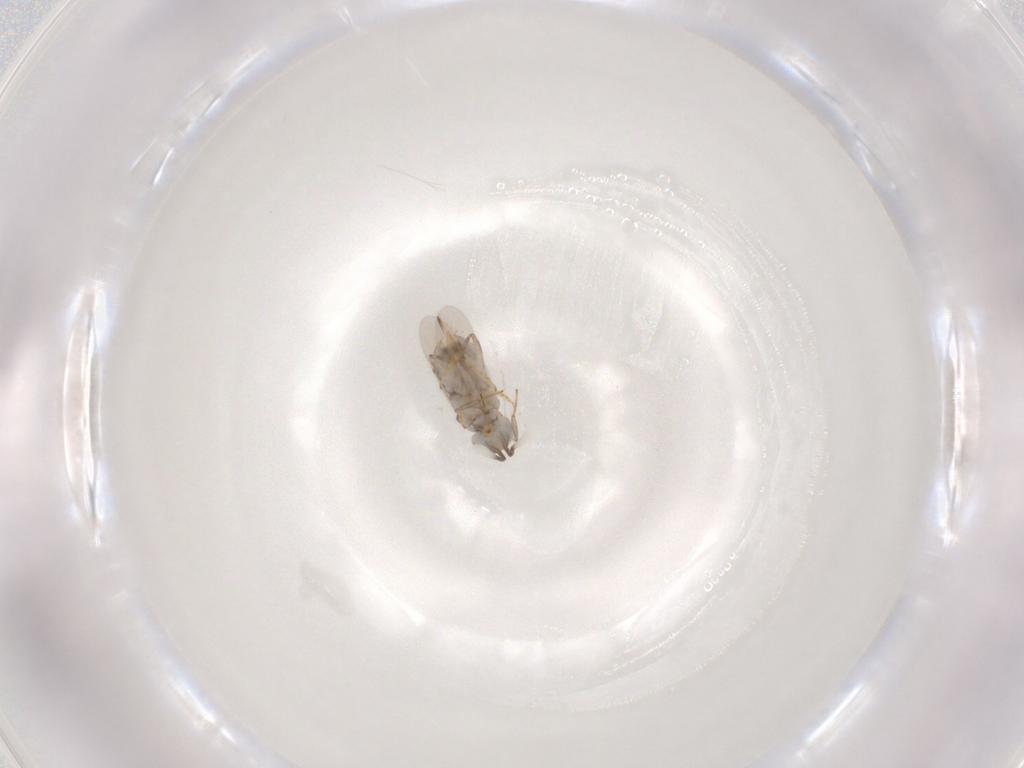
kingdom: Animalia
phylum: Arthropoda
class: Insecta
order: Hymenoptera
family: Encyrtidae
